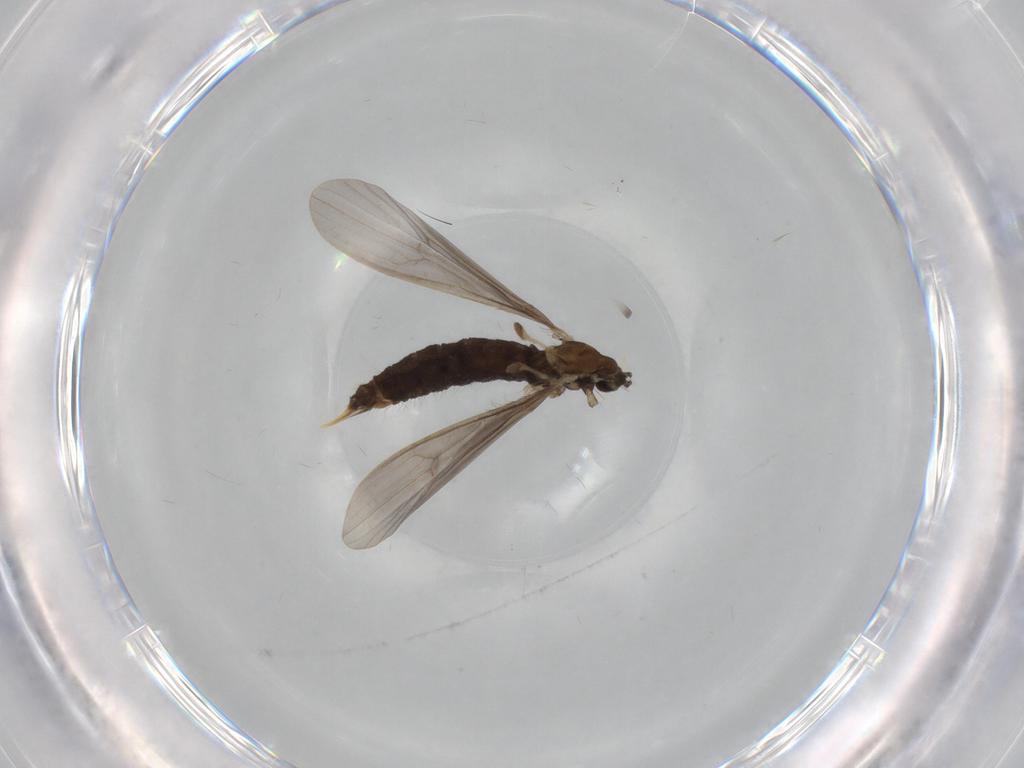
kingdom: Animalia
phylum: Arthropoda
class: Insecta
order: Diptera
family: Limoniidae
